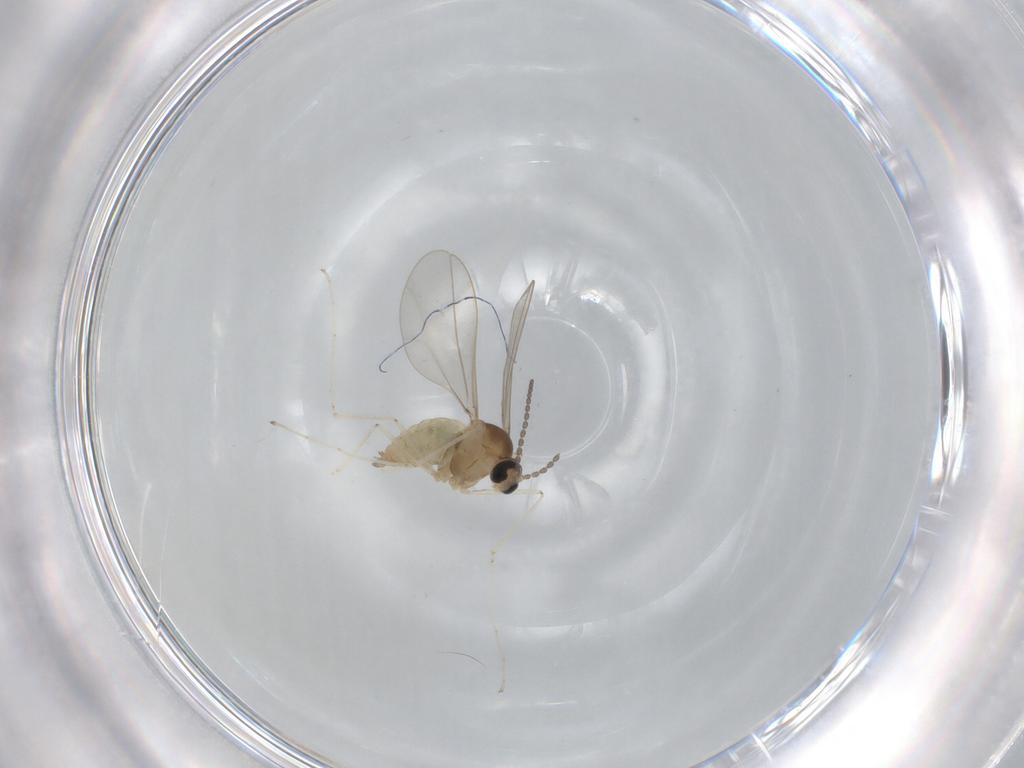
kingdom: Animalia
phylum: Arthropoda
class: Insecta
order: Diptera
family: Cecidomyiidae
